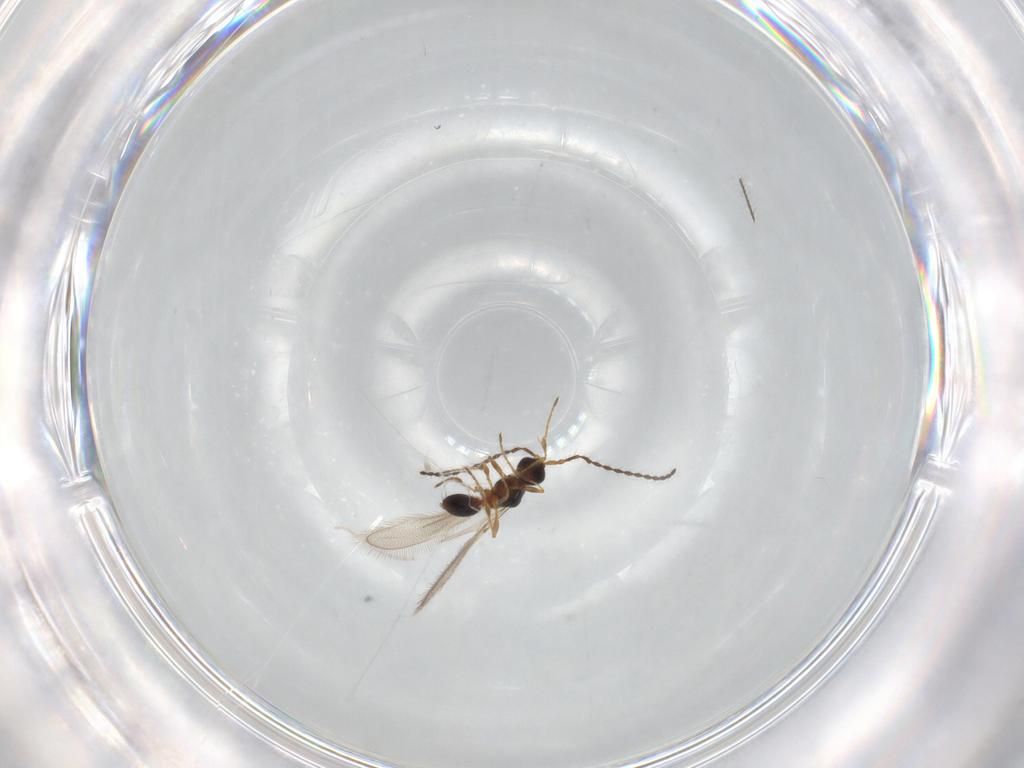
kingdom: Animalia
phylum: Arthropoda
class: Insecta
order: Hymenoptera
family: Diapriidae
